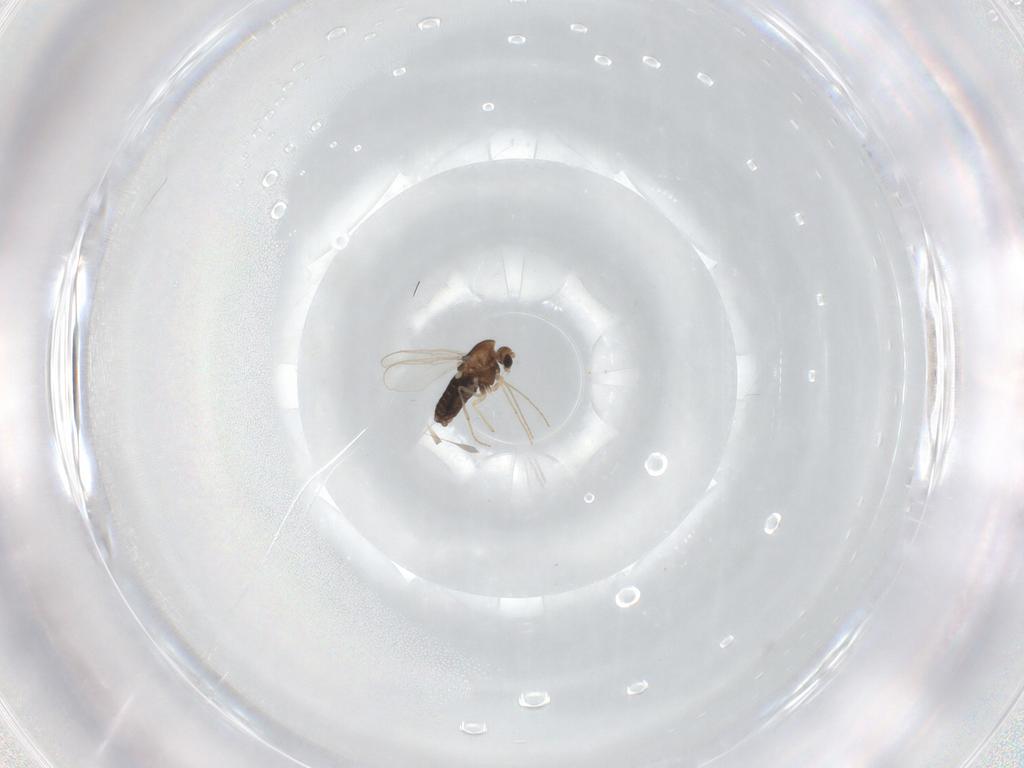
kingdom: Animalia
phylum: Arthropoda
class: Insecta
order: Diptera
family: Chironomidae
